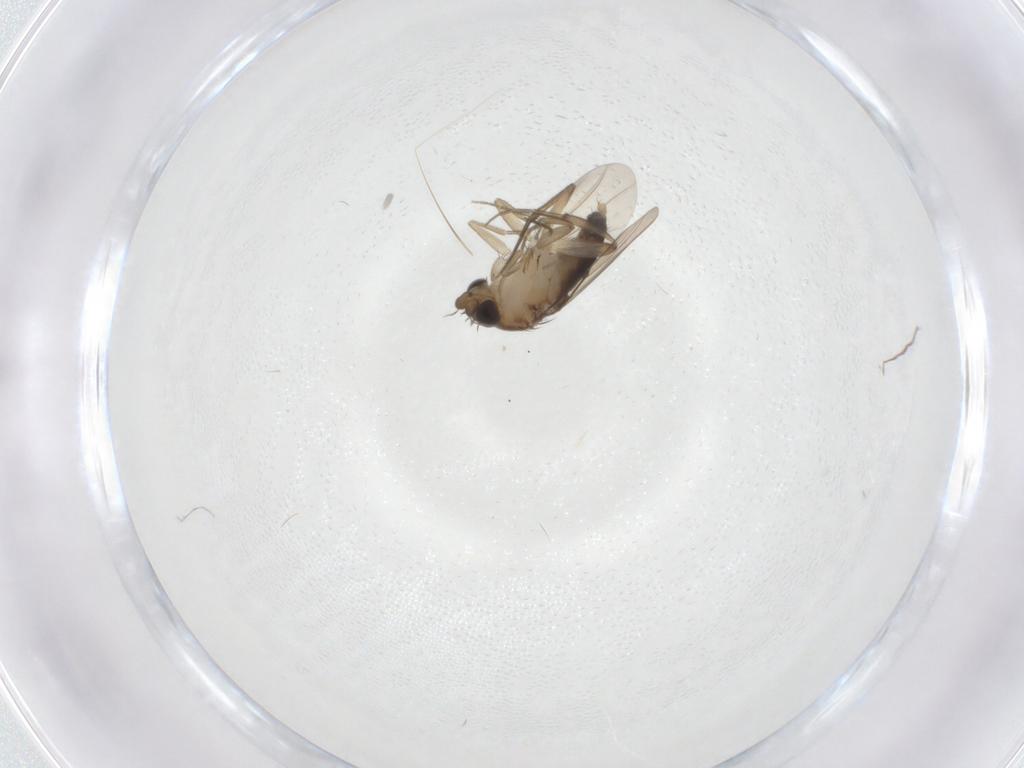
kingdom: Animalia
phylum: Arthropoda
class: Insecta
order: Diptera
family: Phoridae
